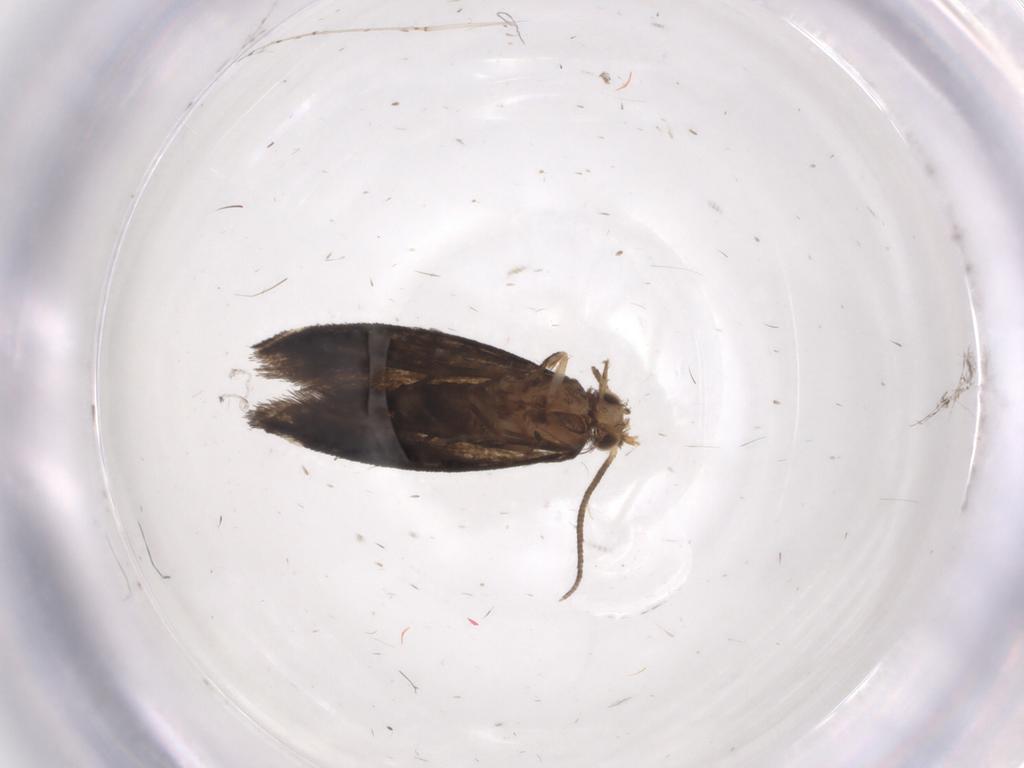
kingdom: Animalia
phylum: Arthropoda
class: Insecta
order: Lepidoptera
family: Tineidae
